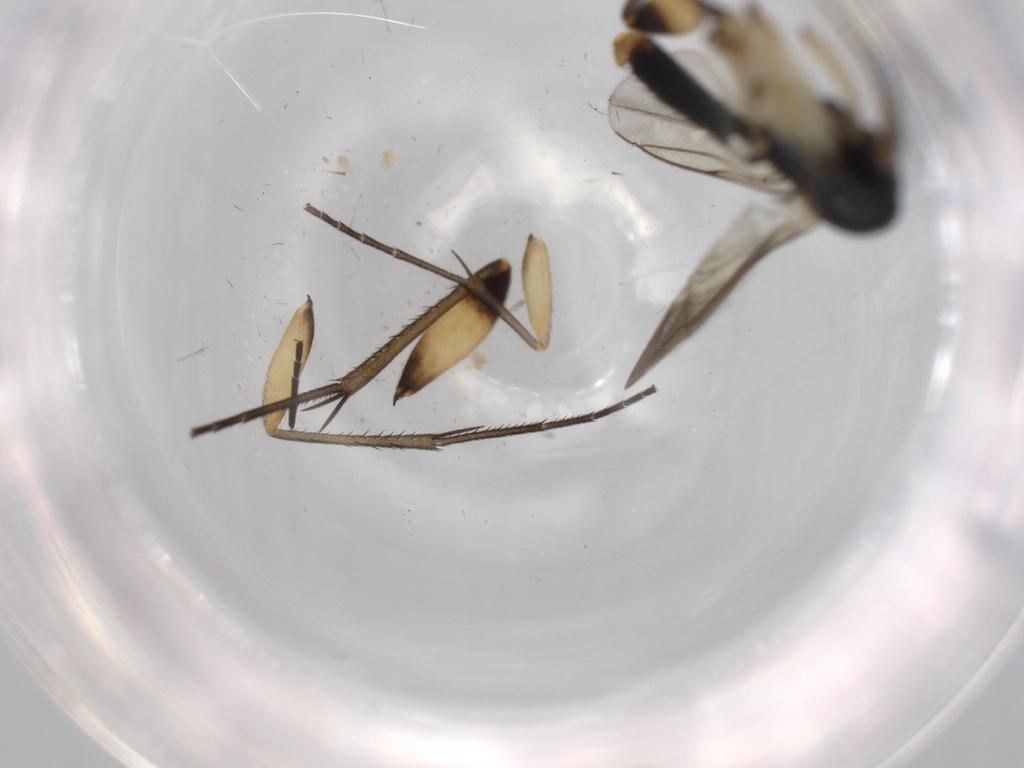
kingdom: Animalia
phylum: Arthropoda
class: Insecta
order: Diptera
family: Mycetophilidae
